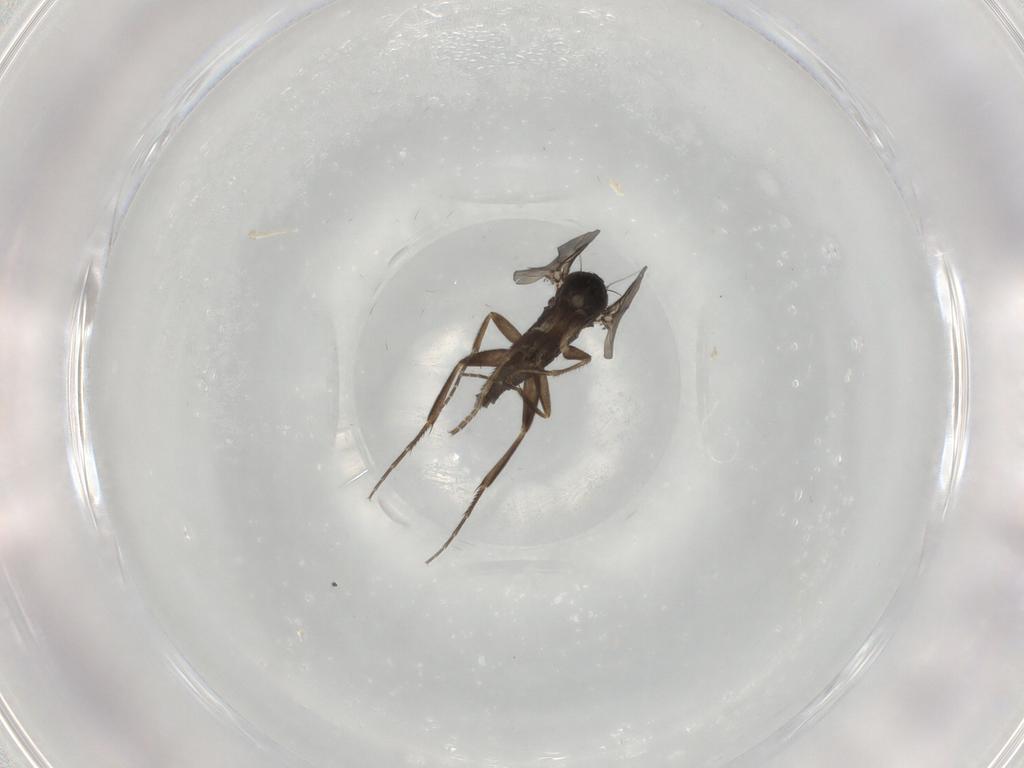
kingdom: Animalia
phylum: Arthropoda
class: Insecta
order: Diptera
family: Phoridae
